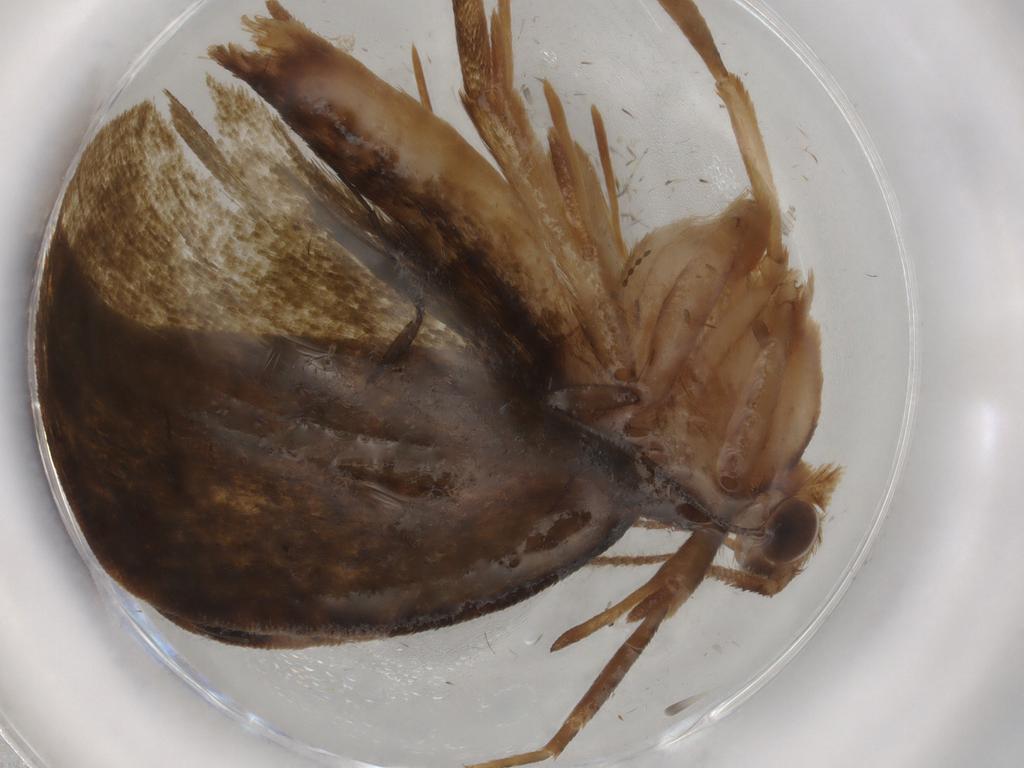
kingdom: Animalia
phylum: Arthropoda
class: Insecta
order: Lepidoptera
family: Geometridae
